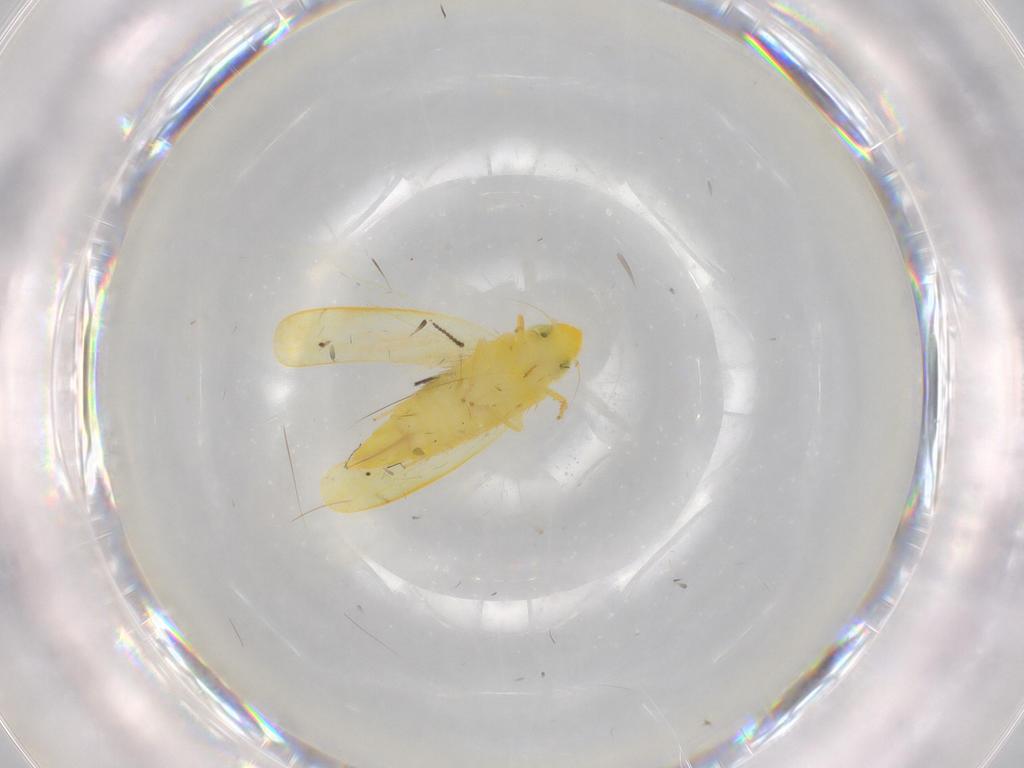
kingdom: Animalia
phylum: Arthropoda
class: Insecta
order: Hemiptera
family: Cicadellidae
